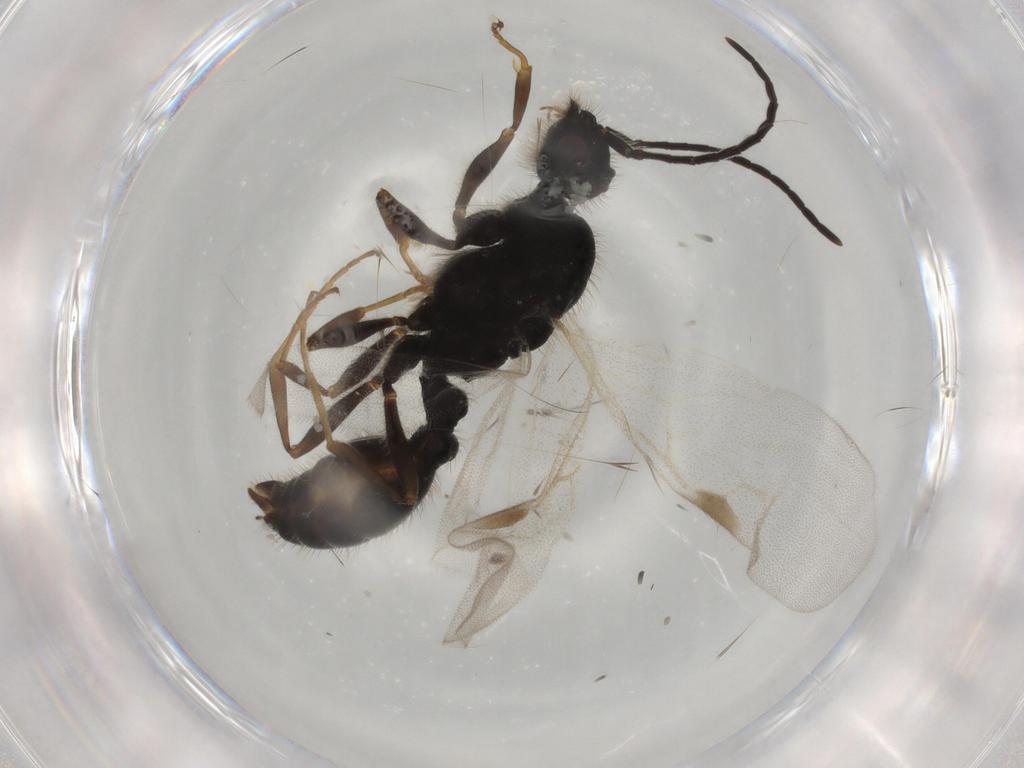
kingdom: Animalia
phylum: Arthropoda
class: Insecta
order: Hymenoptera
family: Formicidae
